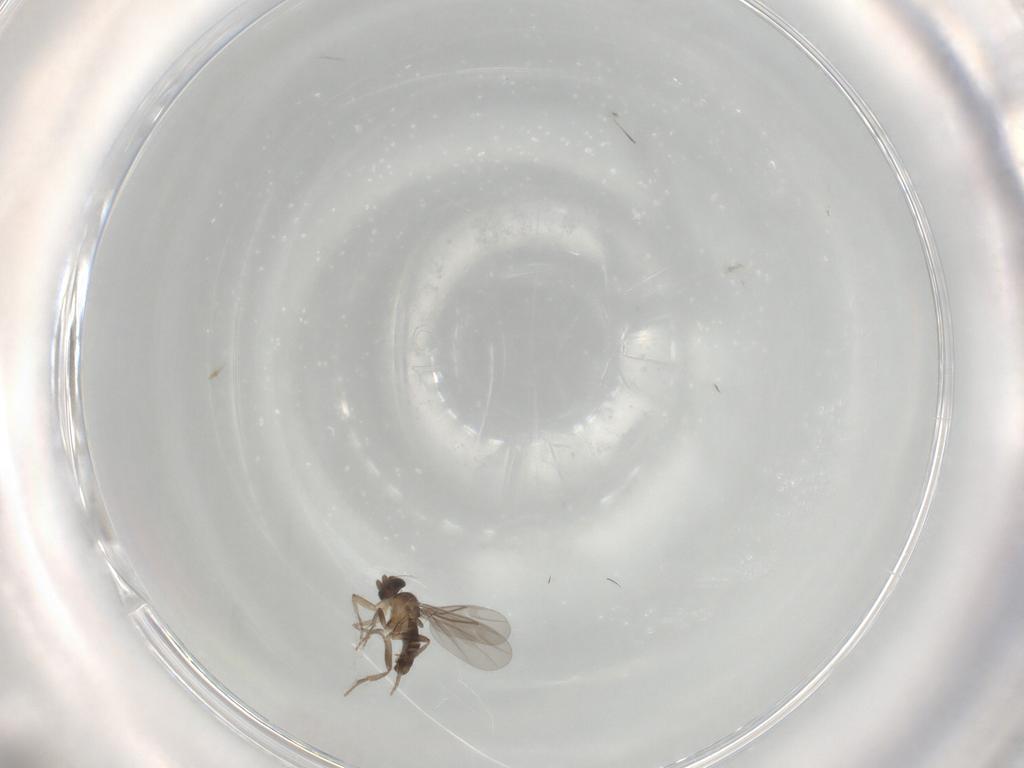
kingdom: Animalia
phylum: Arthropoda
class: Insecta
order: Diptera
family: Phoridae
